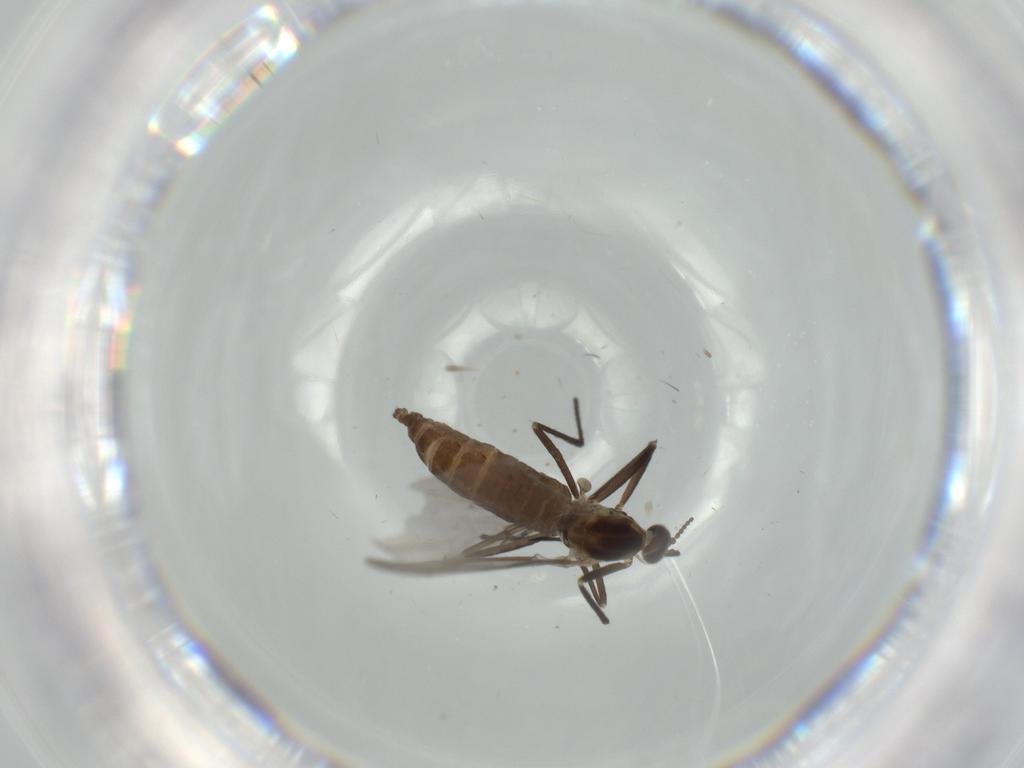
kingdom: Animalia
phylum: Arthropoda
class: Insecta
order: Diptera
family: Cecidomyiidae
